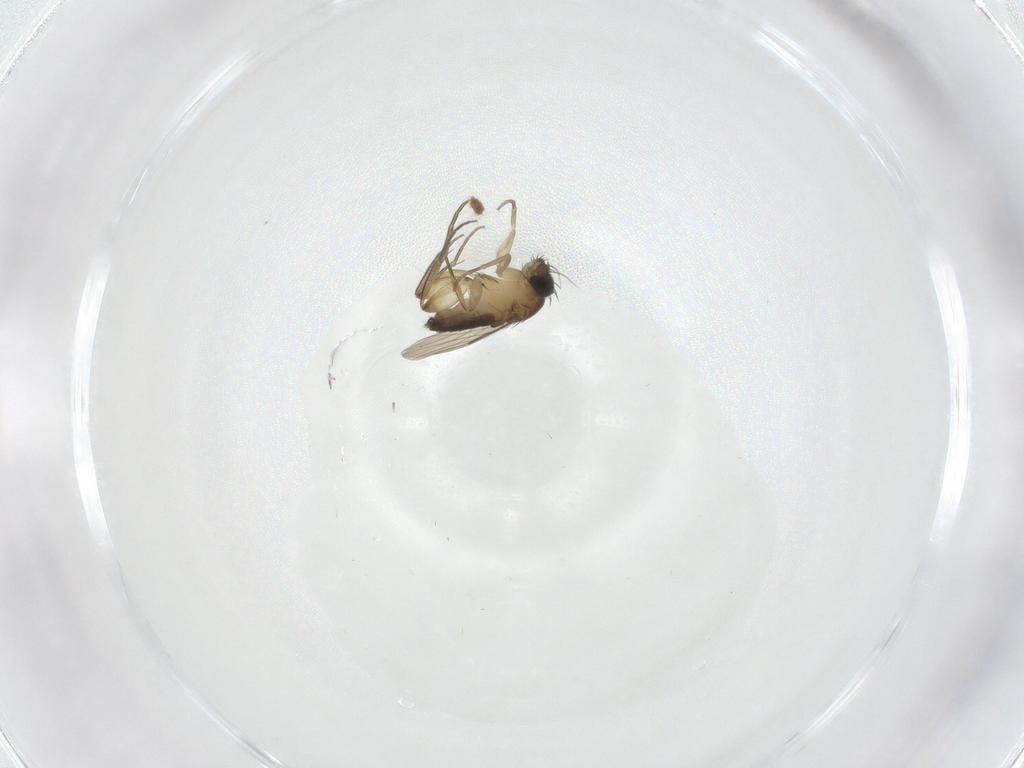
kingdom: Animalia
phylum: Arthropoda
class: Insecta
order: Diptera
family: Phoridae
